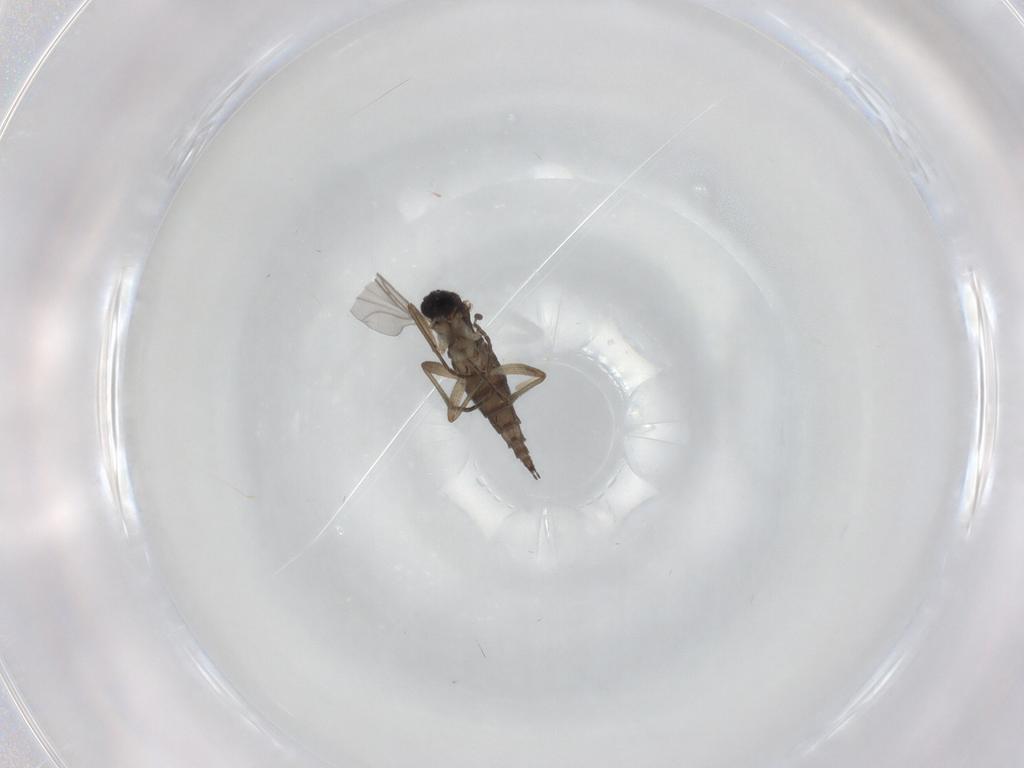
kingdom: Animalia
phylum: Arthropoda
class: Insecta
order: Diptera
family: Sciaridae
